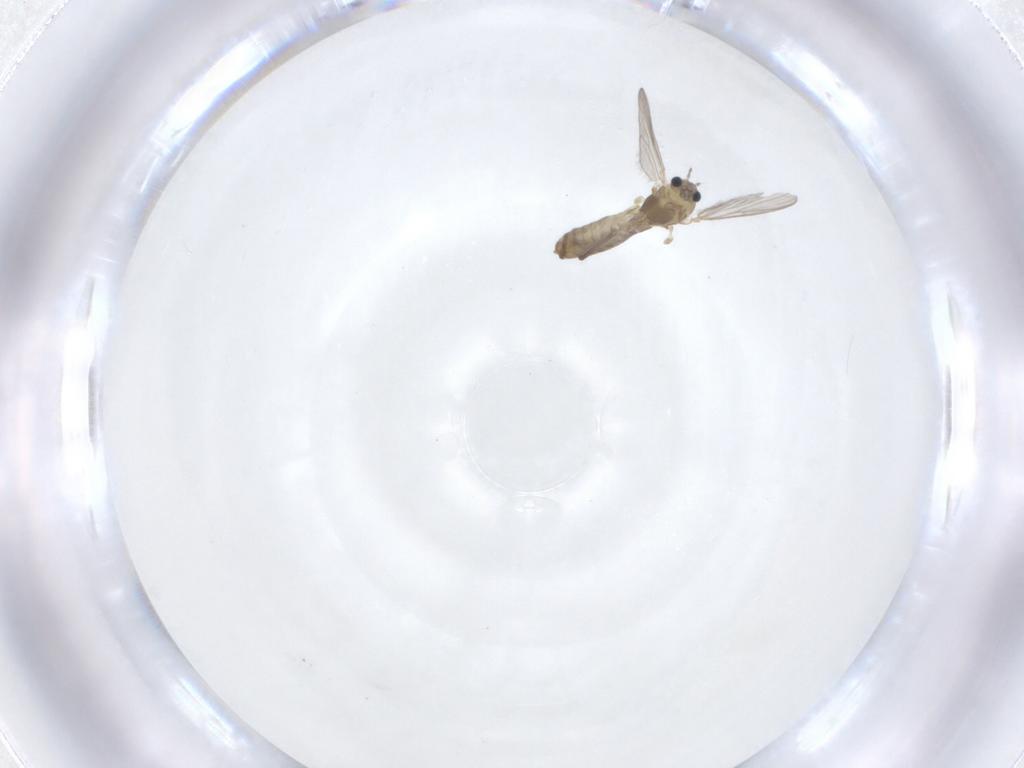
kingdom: Animalia
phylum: Arthropoda
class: Insecta
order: Diptera
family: Chironomidae
